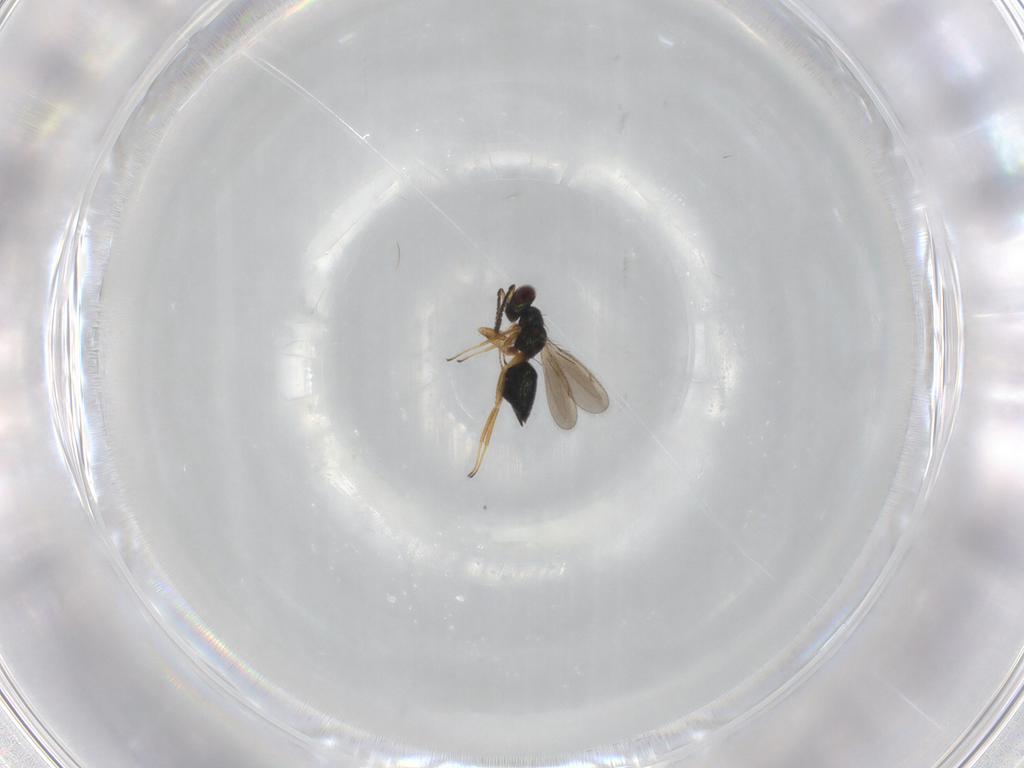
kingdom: Animalia
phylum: Arthropoda
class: Insecta
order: Hymenoptera
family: Tetracampidae
